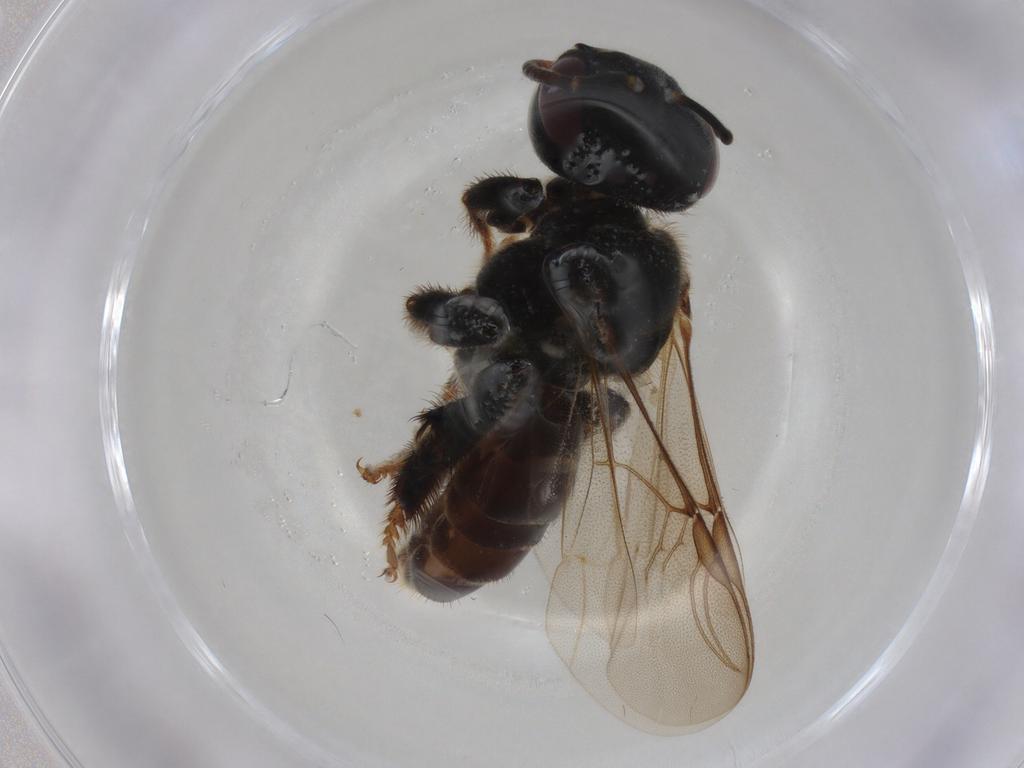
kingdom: Animalia
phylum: Arthropoda
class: Insecta
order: Hymenoptera
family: Apidae
